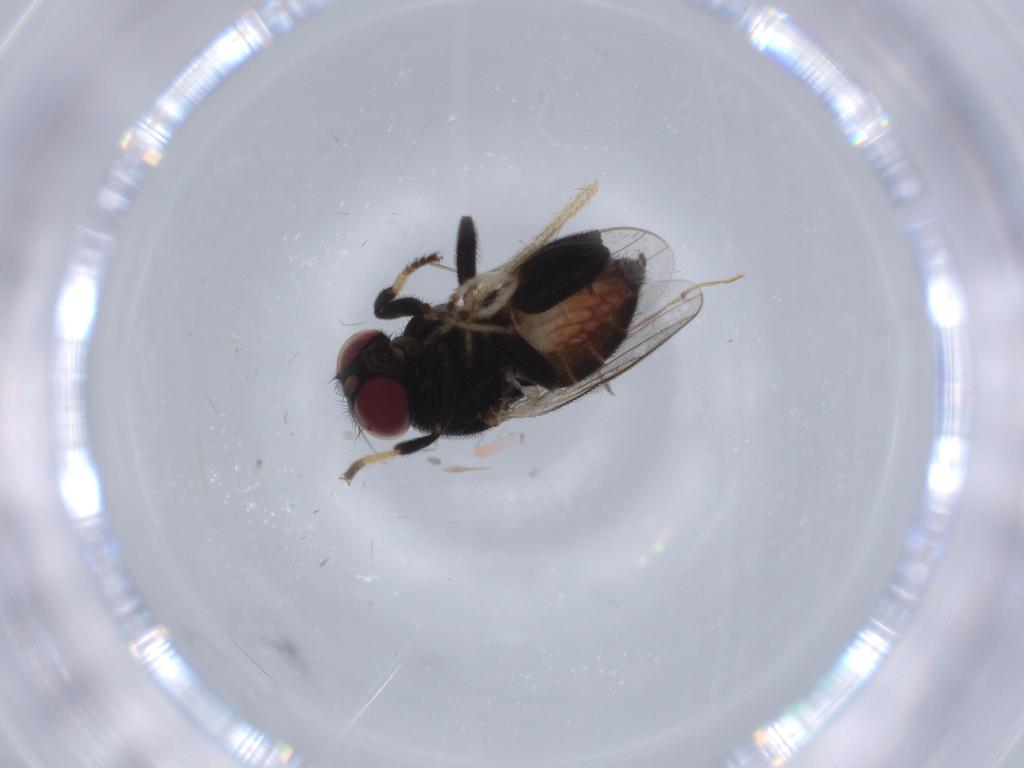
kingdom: Animalia
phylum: Arthropoda
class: Insecta
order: Diptera
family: Chloropidae
